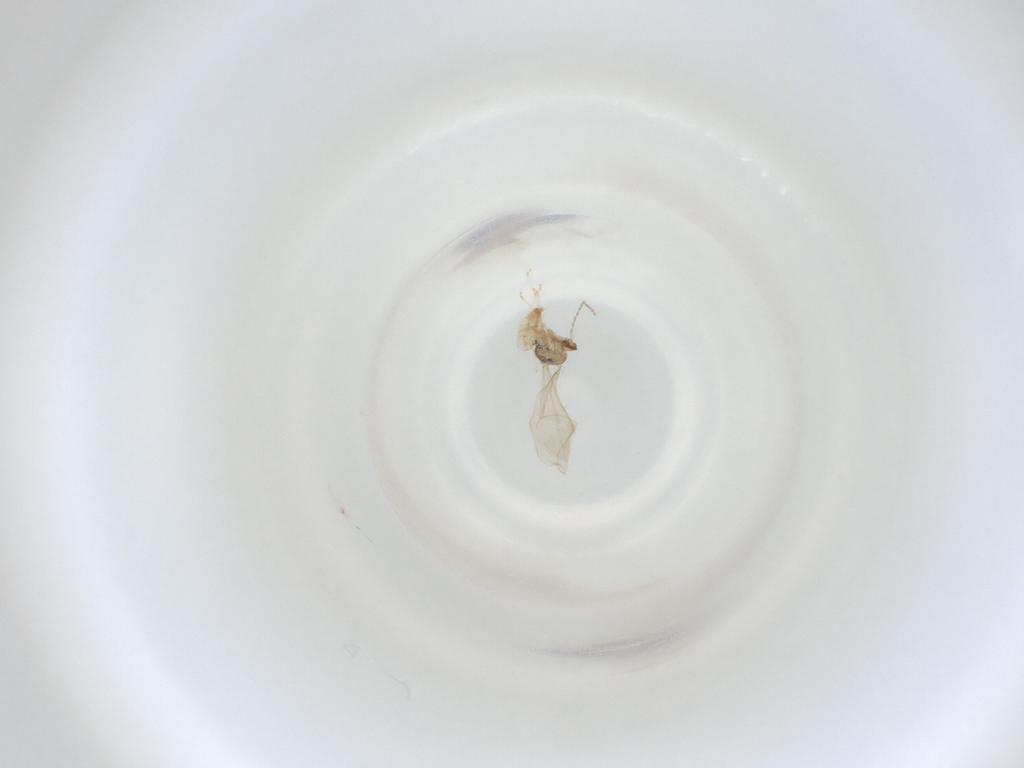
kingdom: Animalia
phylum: Arthropoda
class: Insecta
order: Diptera
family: Cecidomyiidae
